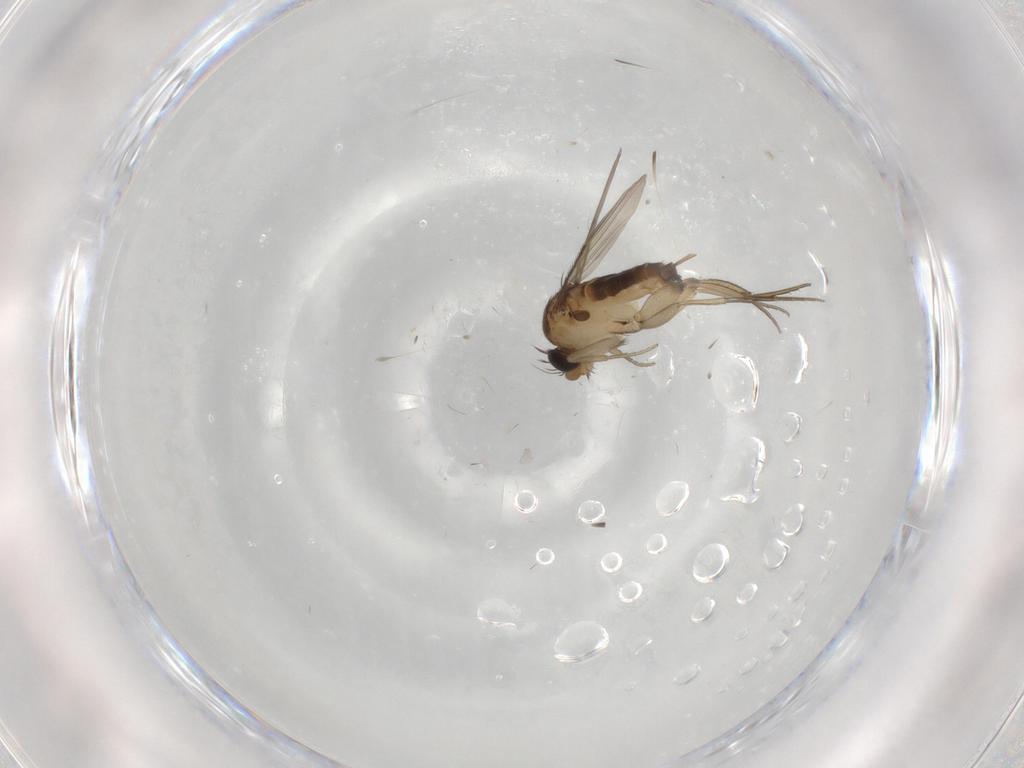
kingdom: Animalia
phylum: Arthropoda
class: Insecta
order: Diptera
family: Phoridae
